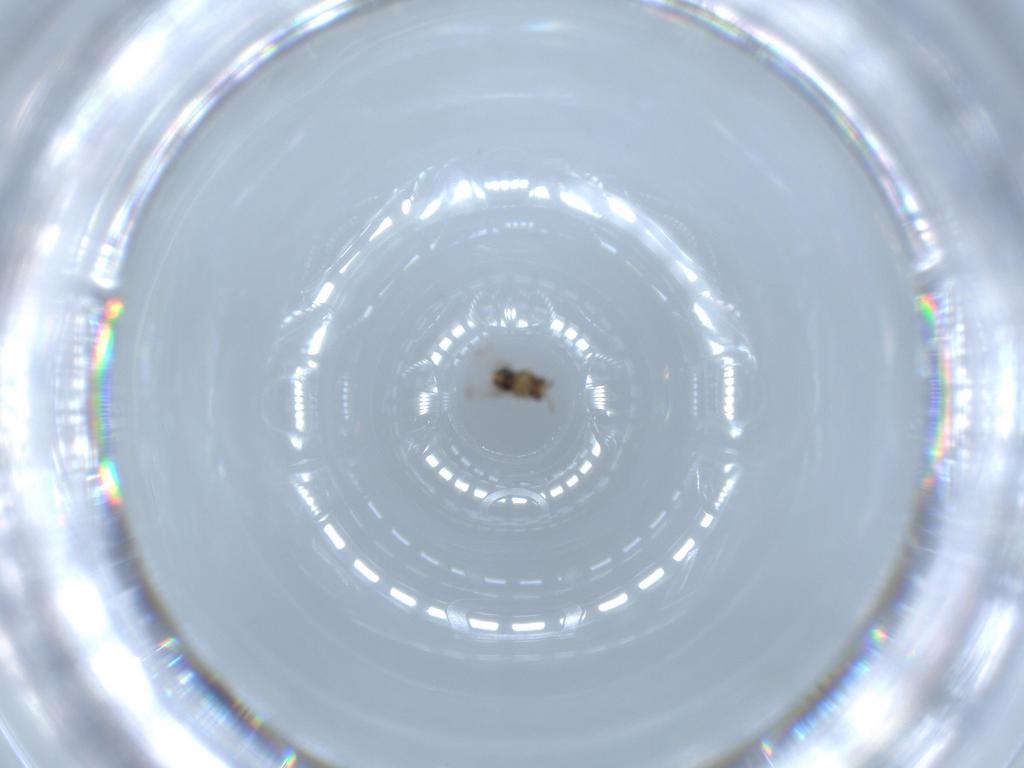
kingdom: Animalia
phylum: Arthropoda
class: Insecta
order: Hymenoptera
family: Aphelinidae
